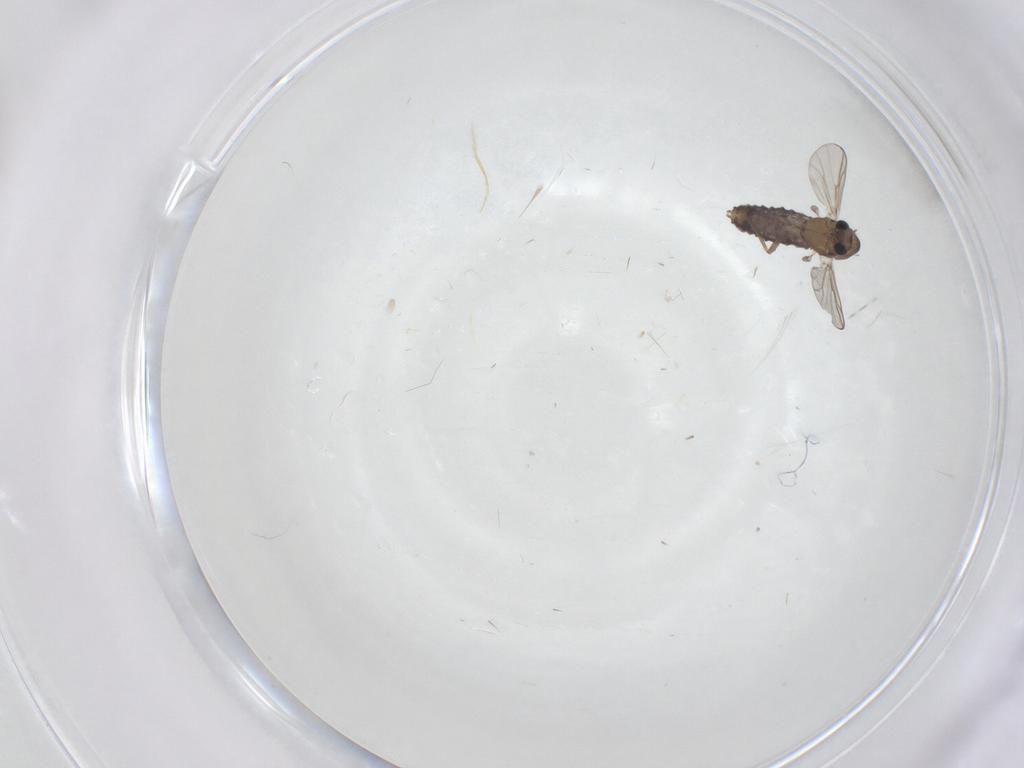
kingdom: Animalia
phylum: Arthropoda
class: Insecta
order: Diptera
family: Chironomidae
